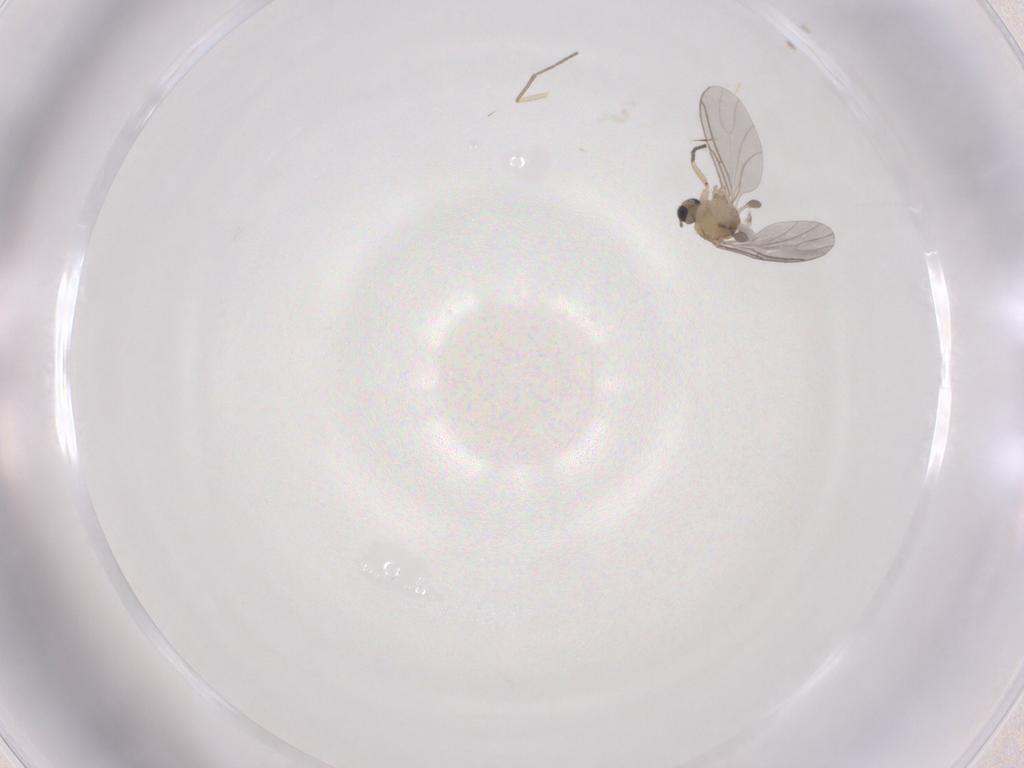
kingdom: Animalia
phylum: Arthropoda
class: Insecta
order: Diptera
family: Sciaridae
